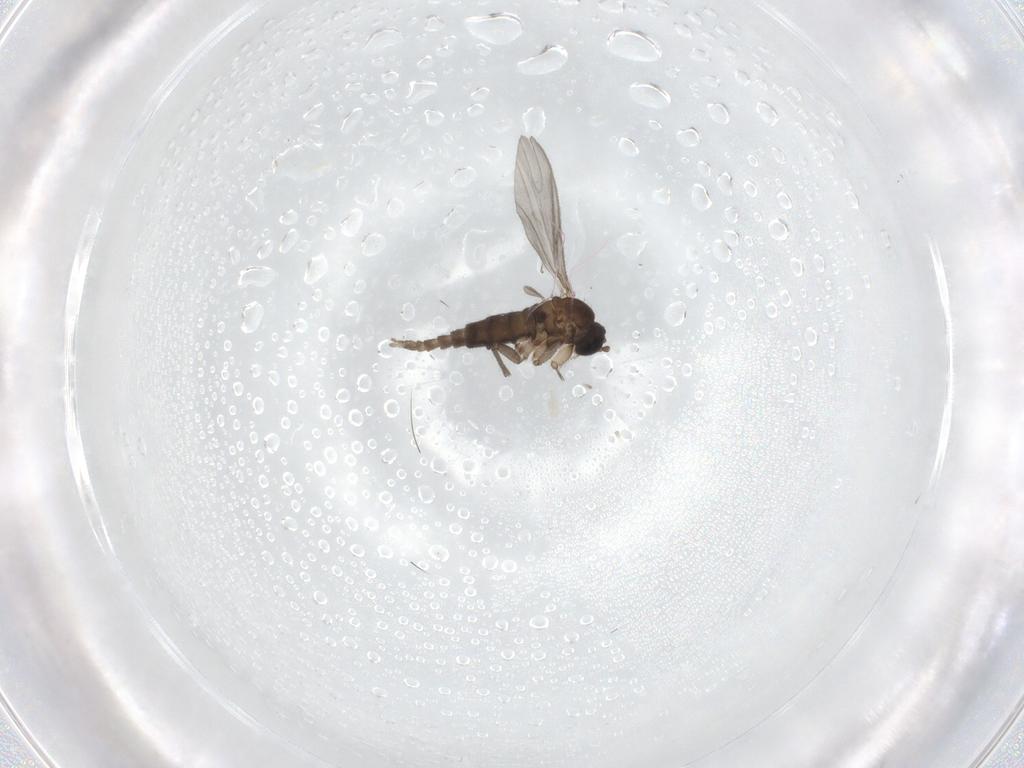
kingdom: Animalia
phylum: Arthropoda
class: Insecta
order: Diptera
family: Sciaridae
